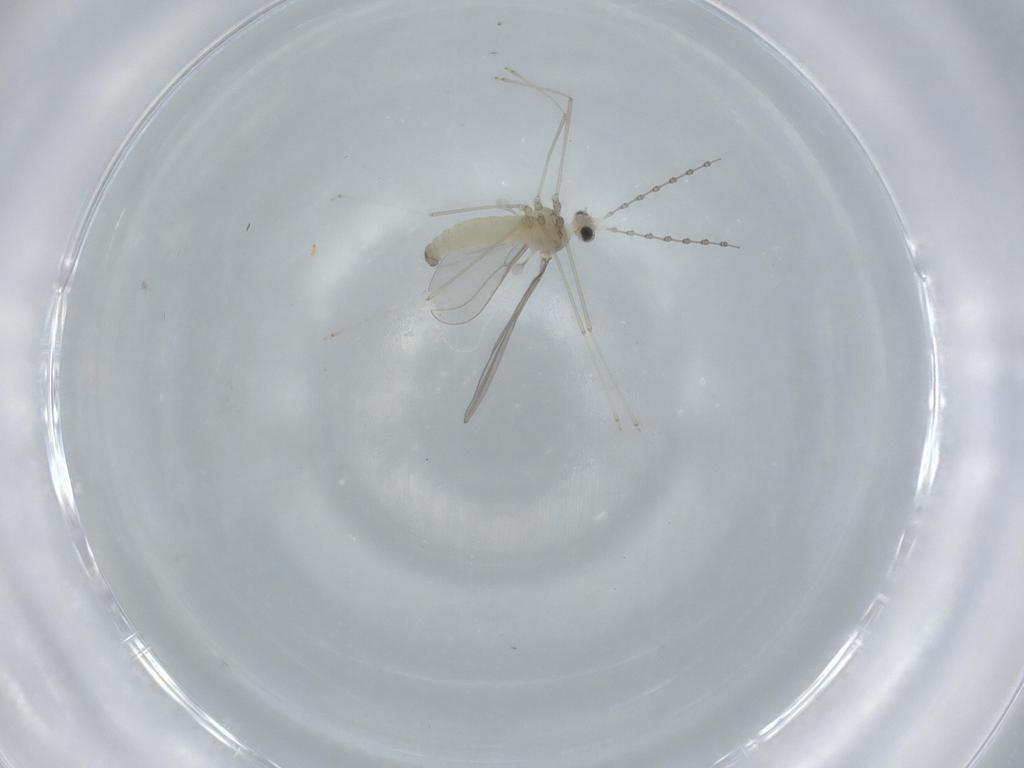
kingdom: Animalia
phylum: Arthropoda
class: Insecta
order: Diptera
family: Cecidomyiidae
